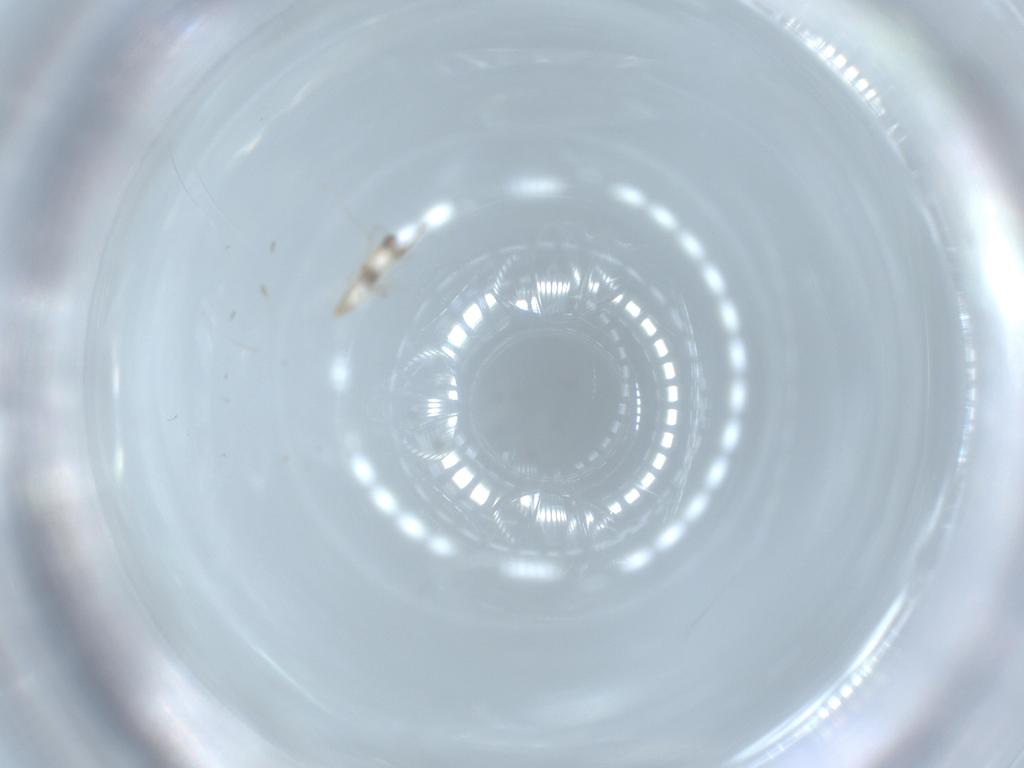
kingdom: Animalia
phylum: Arthropoda
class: Insecta
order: Diptera
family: Cecidomyiidae
